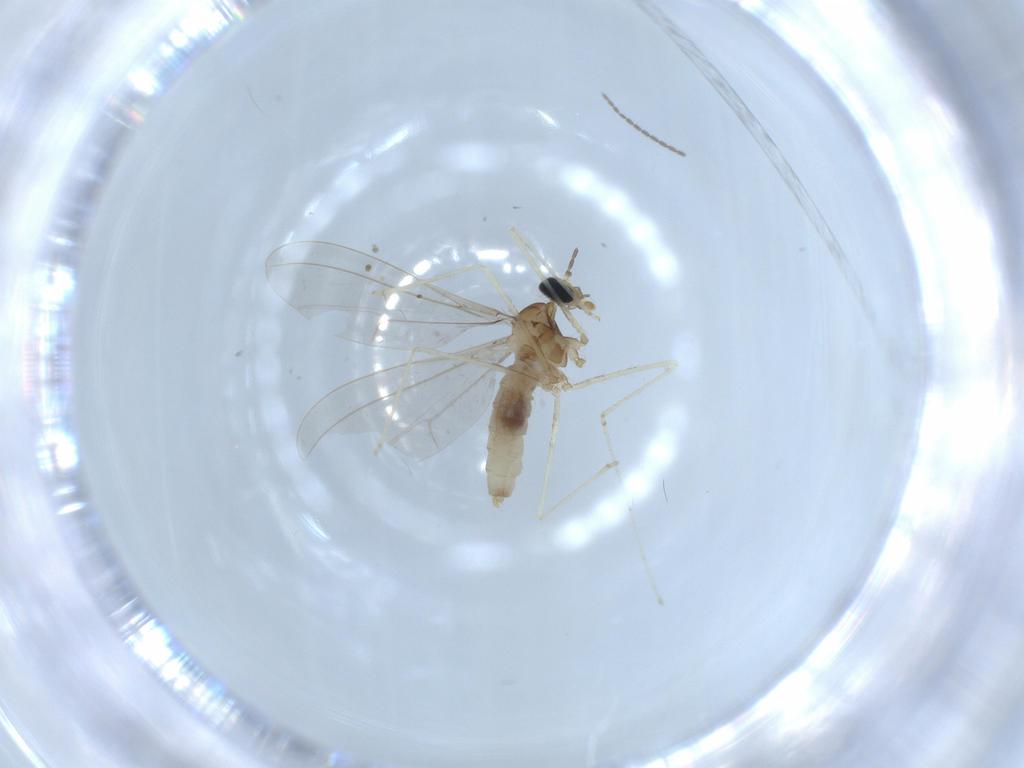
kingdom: Animalia
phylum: Arthropoda
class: Insecta
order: Diptera
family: Cecidomyiidae
